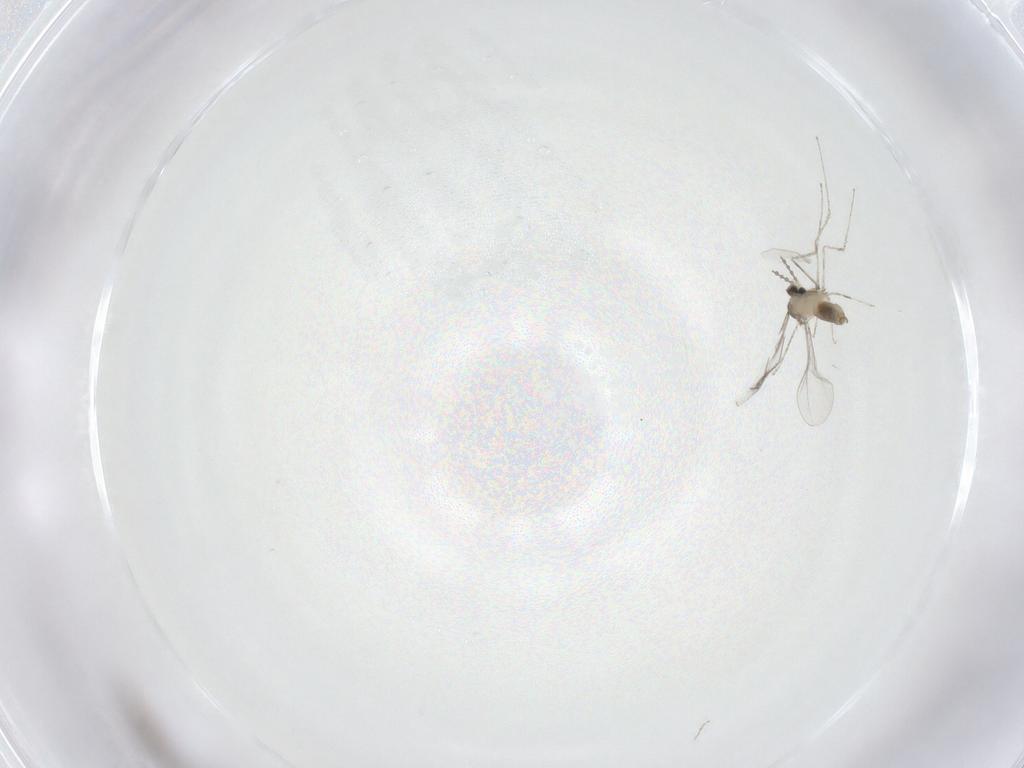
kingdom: Animalia
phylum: Arthropoda
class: Insecta
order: Diptera
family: Cecidomyiidae
